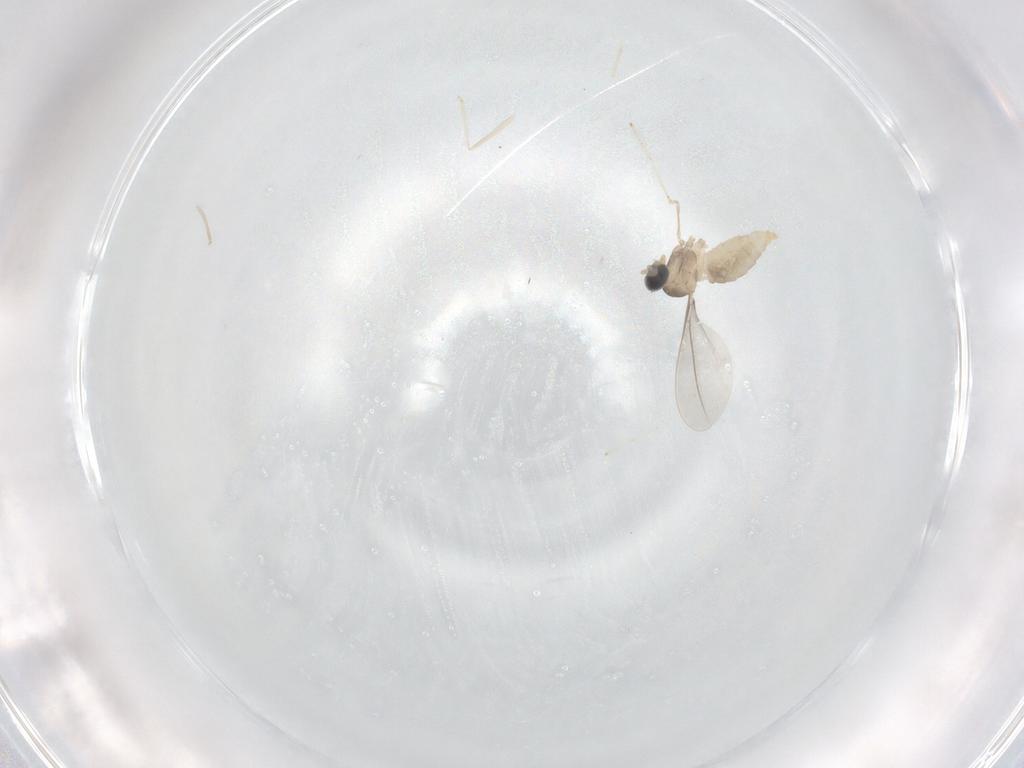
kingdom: Animalia
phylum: Arthropoda
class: Insecta
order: Diptera
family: Cecidomyiidae
